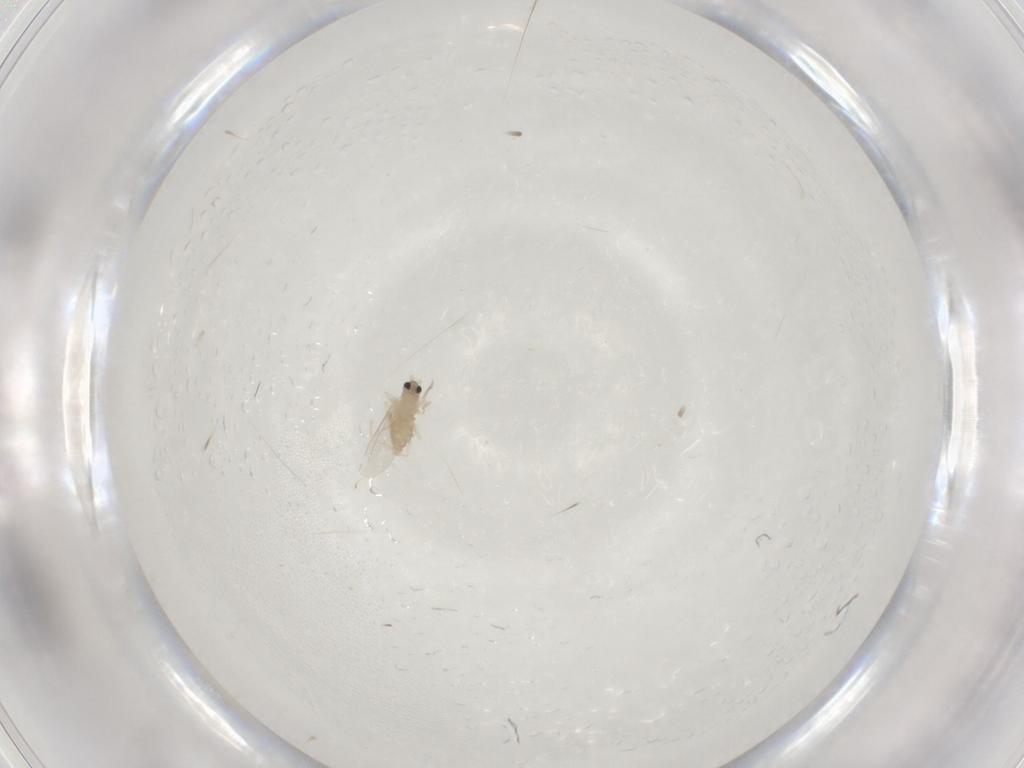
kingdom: Animalia
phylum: Arthropoda
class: Insecta
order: Diptera
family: Cecidomyiidae
